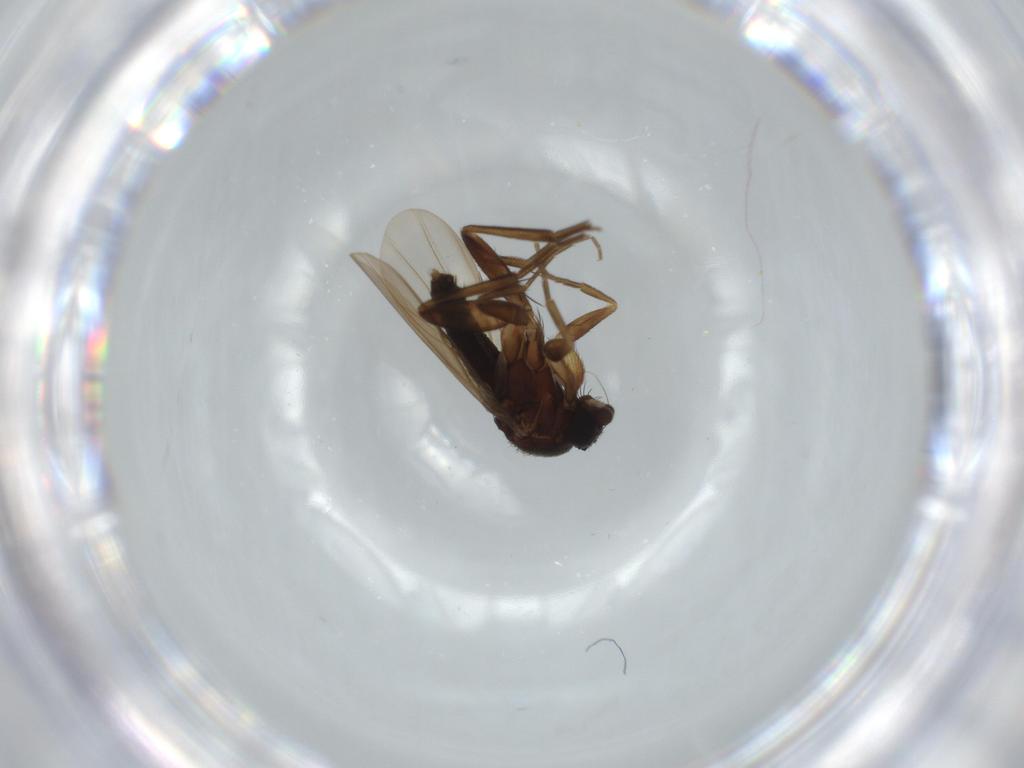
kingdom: Animalia
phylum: Arthropoda
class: Insecta
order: Diptera
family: Phoridae
